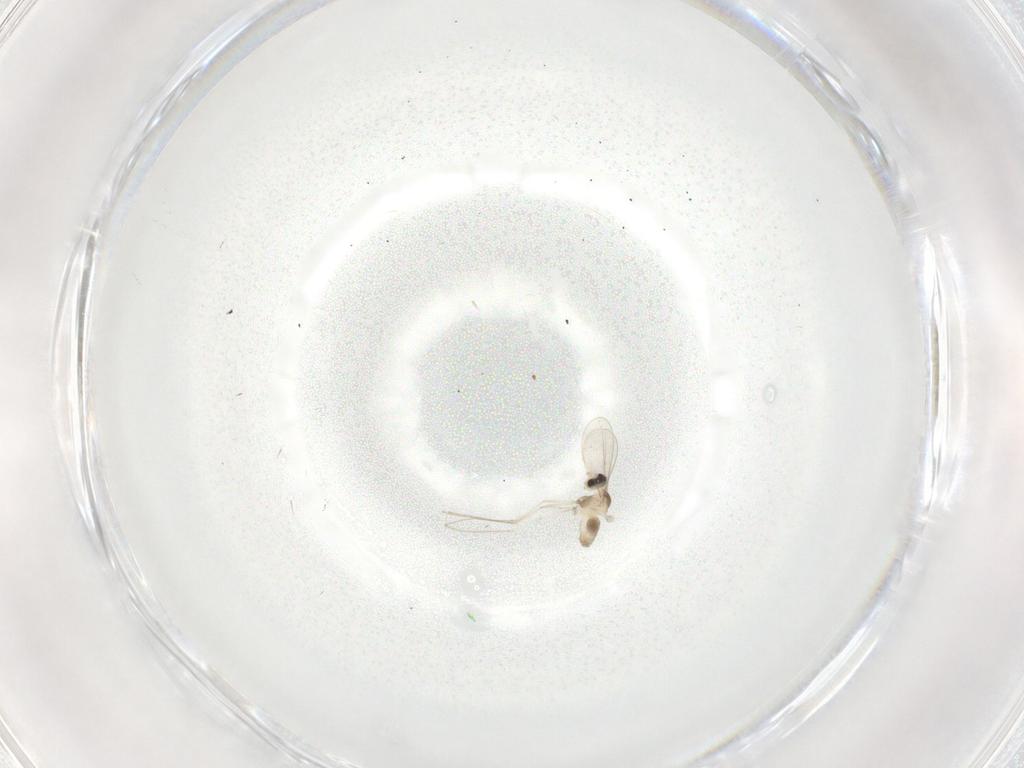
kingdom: Animalia
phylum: Arthropoda
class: Insecta
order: Diptera
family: Cecidomyiidae
